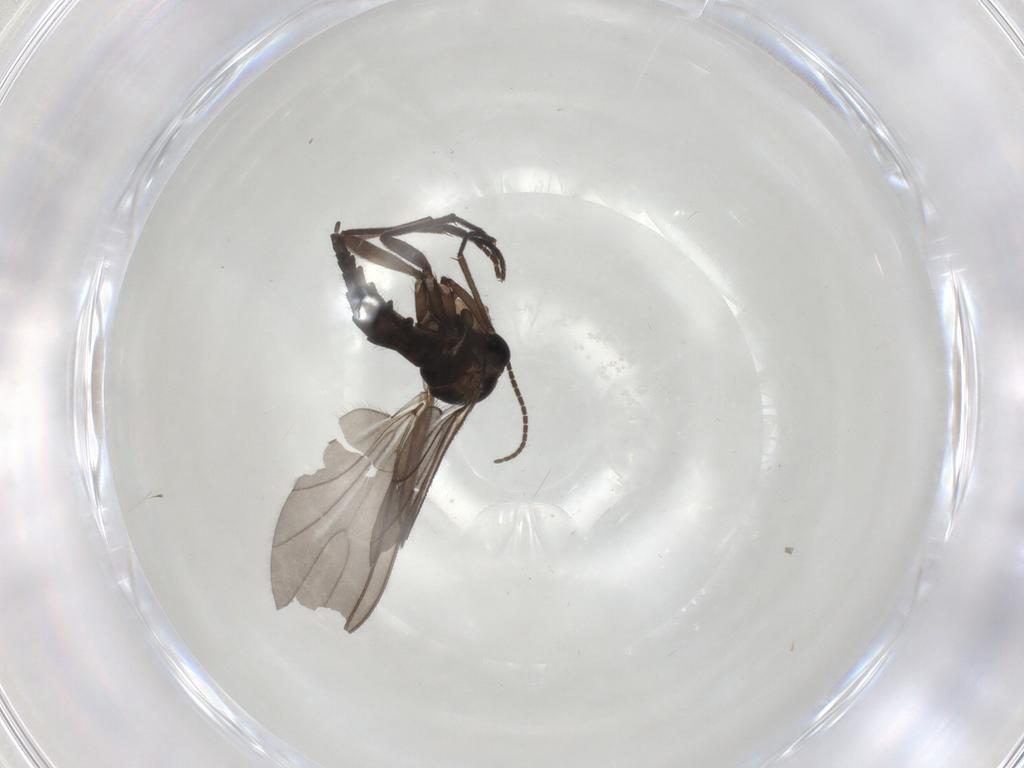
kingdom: Animalia
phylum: Arthropoda
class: Insecta
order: Diptera
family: Sciaridae
